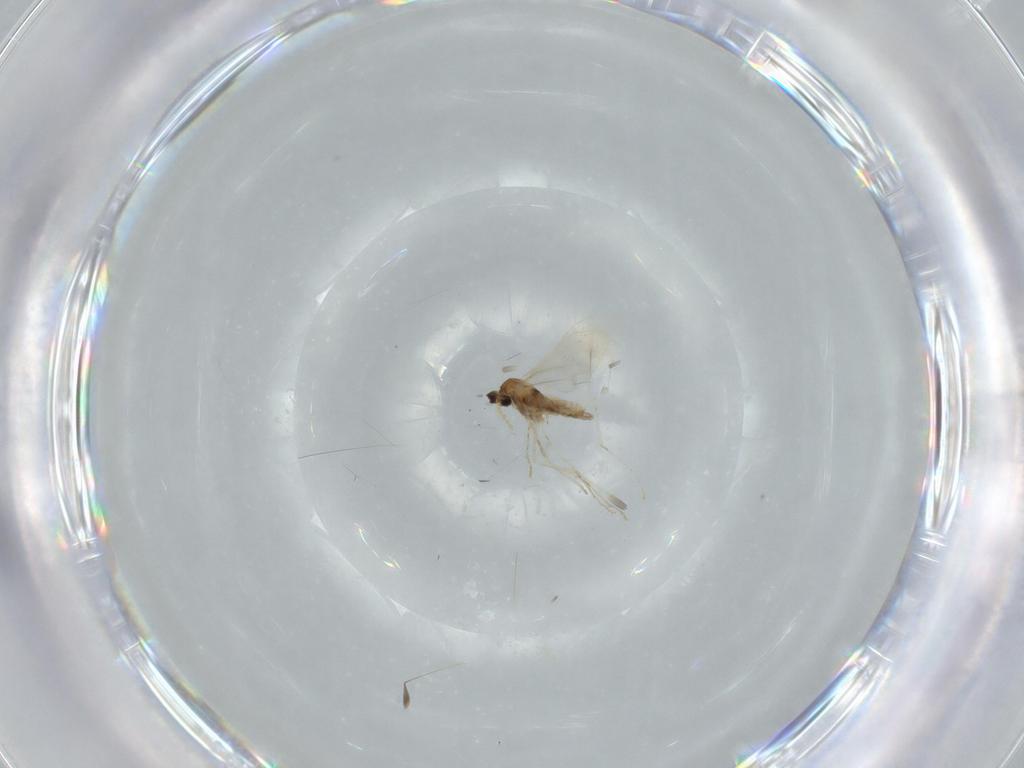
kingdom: Animalia
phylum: Arthropoda
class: Insecta
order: Diptera
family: Cecidomyiidae
